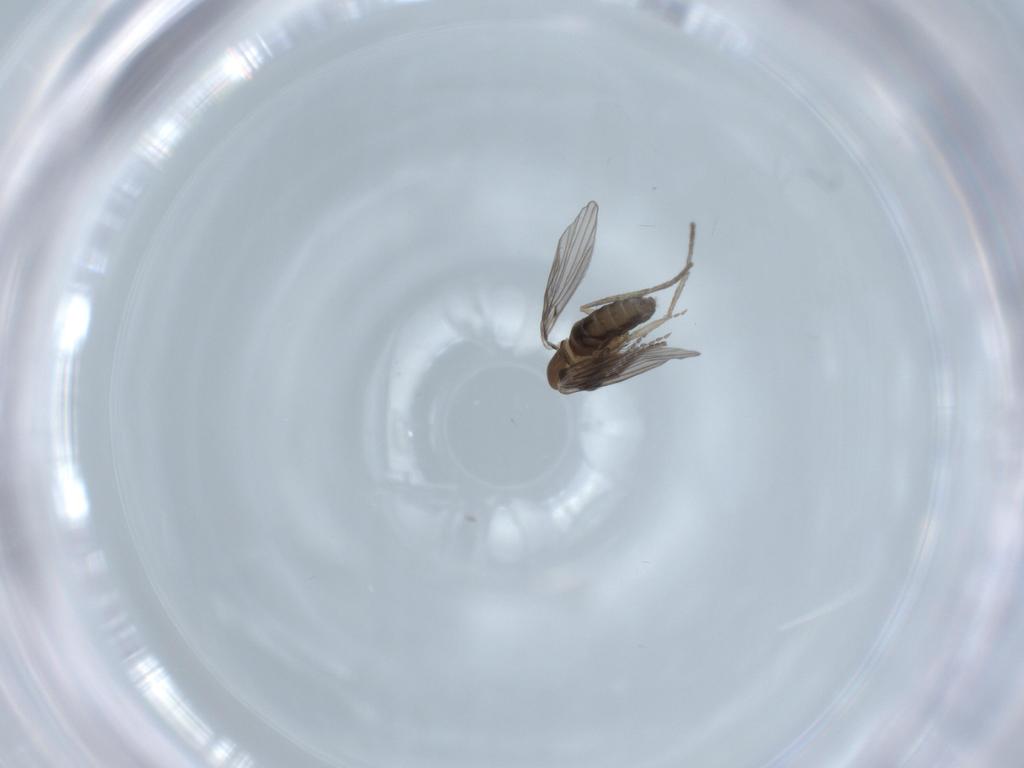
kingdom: Animalia
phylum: Arthropoda
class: Insecta
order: Diptera
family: Psychodidae
